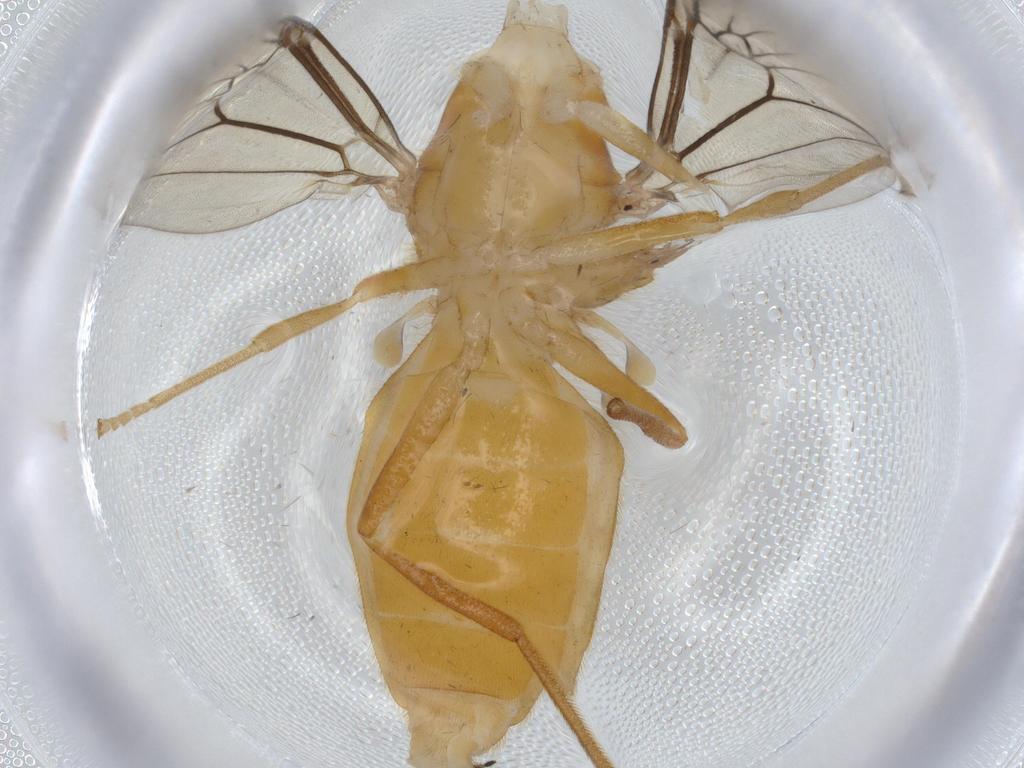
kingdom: Animalia
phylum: Arthropoda
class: Insecta
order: Diptera
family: Stratiomyidae
